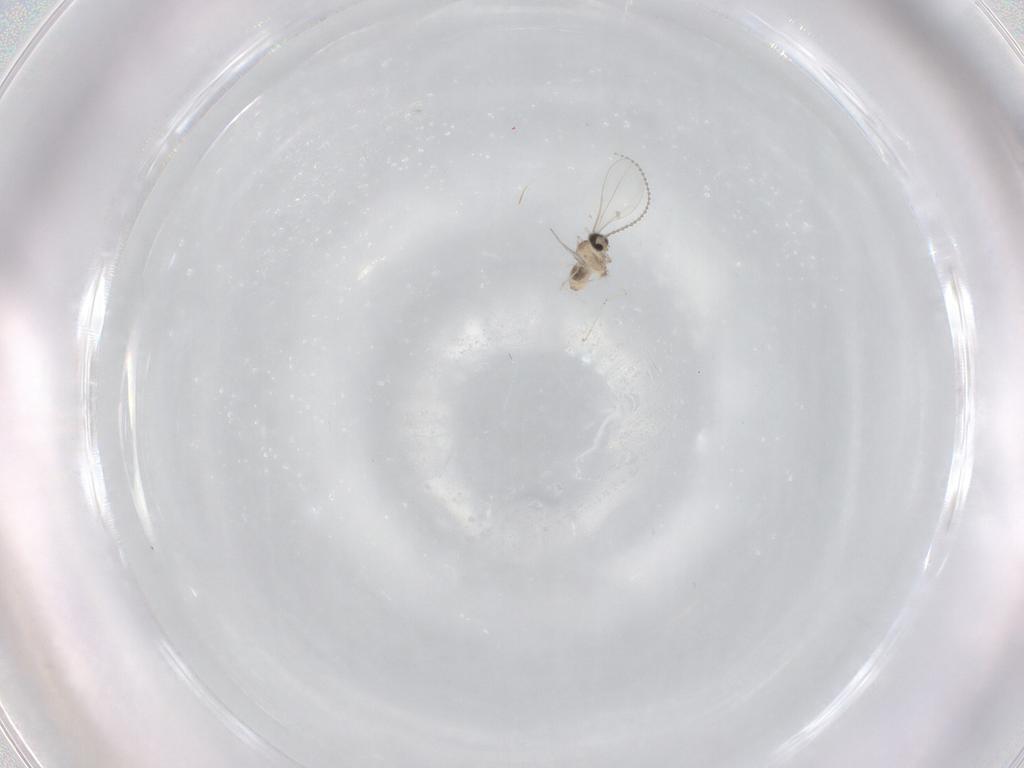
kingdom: Animalia
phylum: Arthropoda
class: Insecta
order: Diptera
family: Cecidomyiidae
